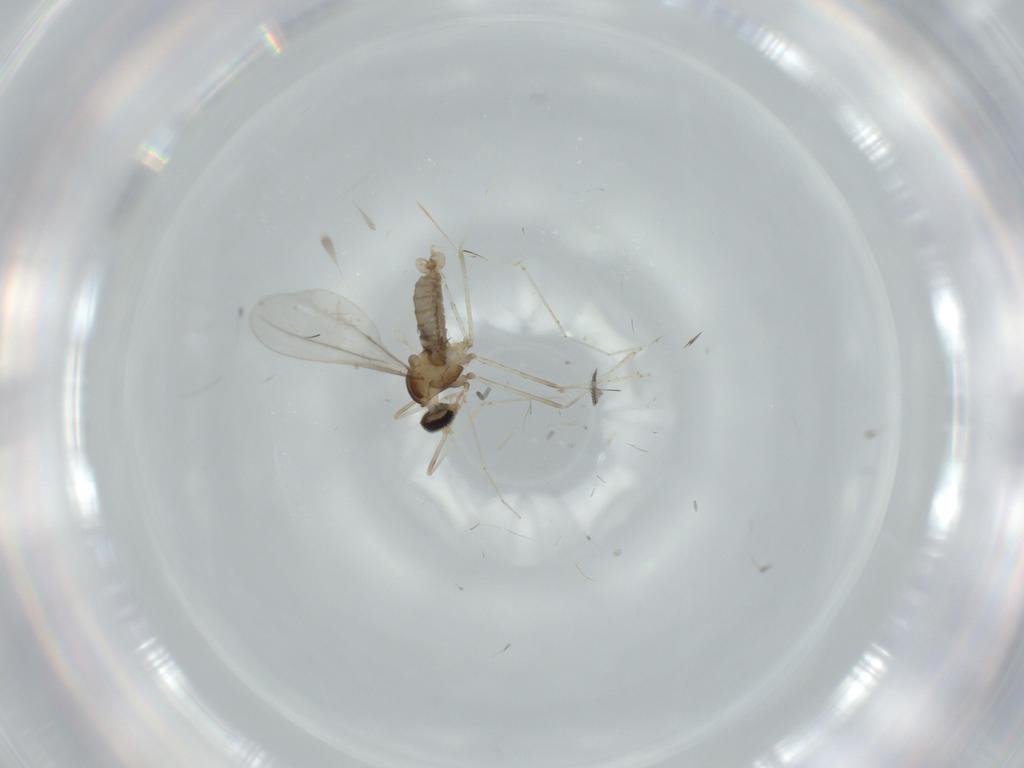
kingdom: Animalia
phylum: Arthropoda
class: Insecta
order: Diptera
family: Cecidomyiidae
